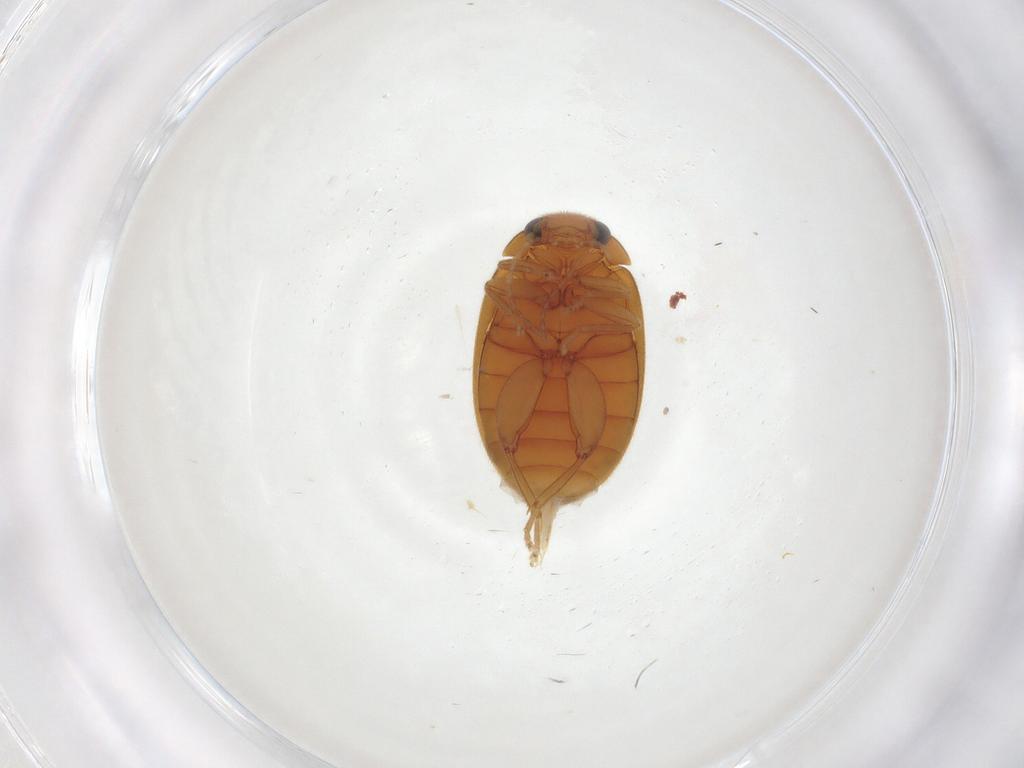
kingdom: Animalia
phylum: Arthropoda
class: Insecta
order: Coleoptera
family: Scirtidae
